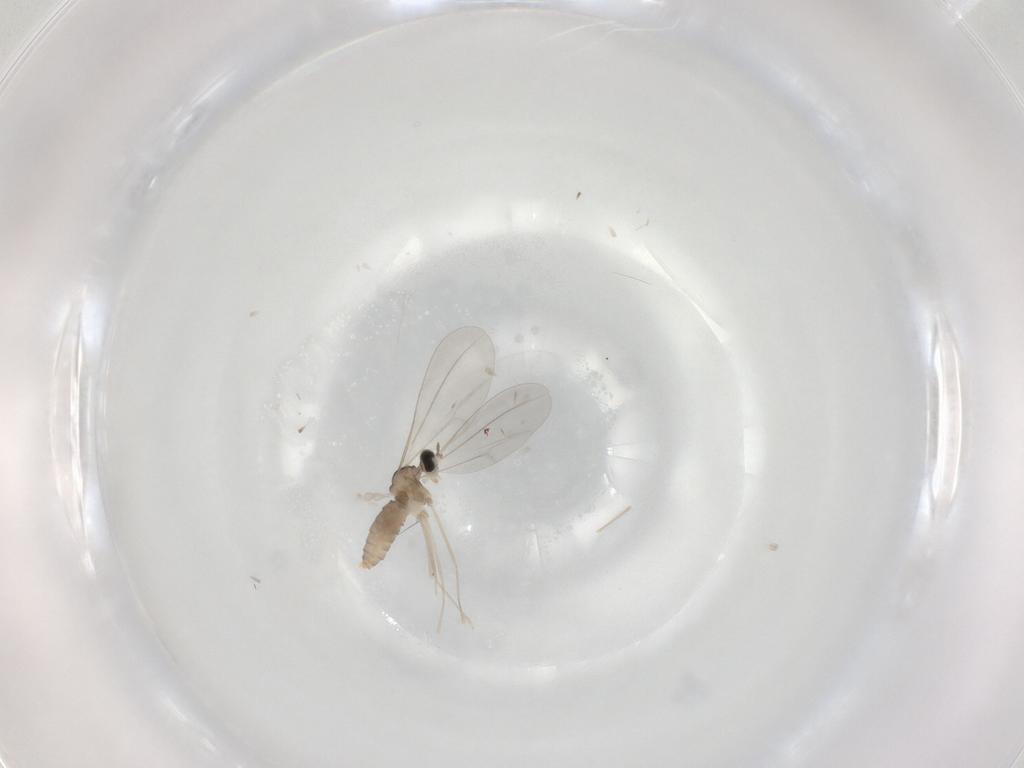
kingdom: Animalia
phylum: Arthropoda
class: Insecta
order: Diptera
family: Cecidomyiidae
